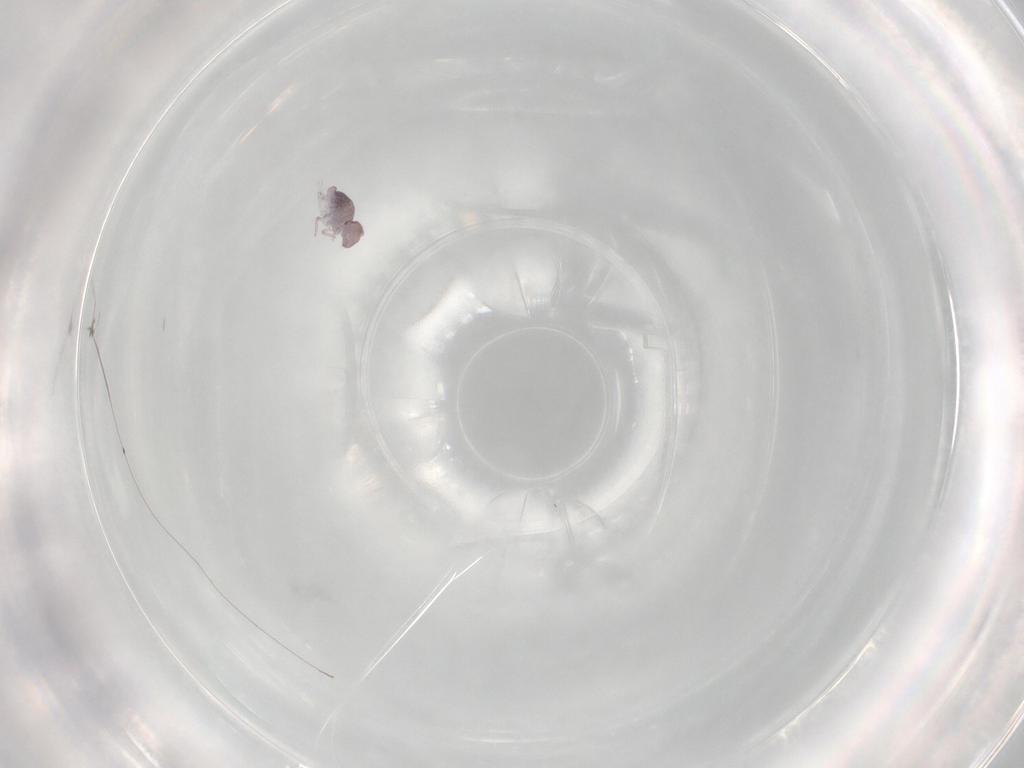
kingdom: Animalia
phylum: Arthropoda
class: Collembola
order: Symphypleona
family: Bourletiellidae
